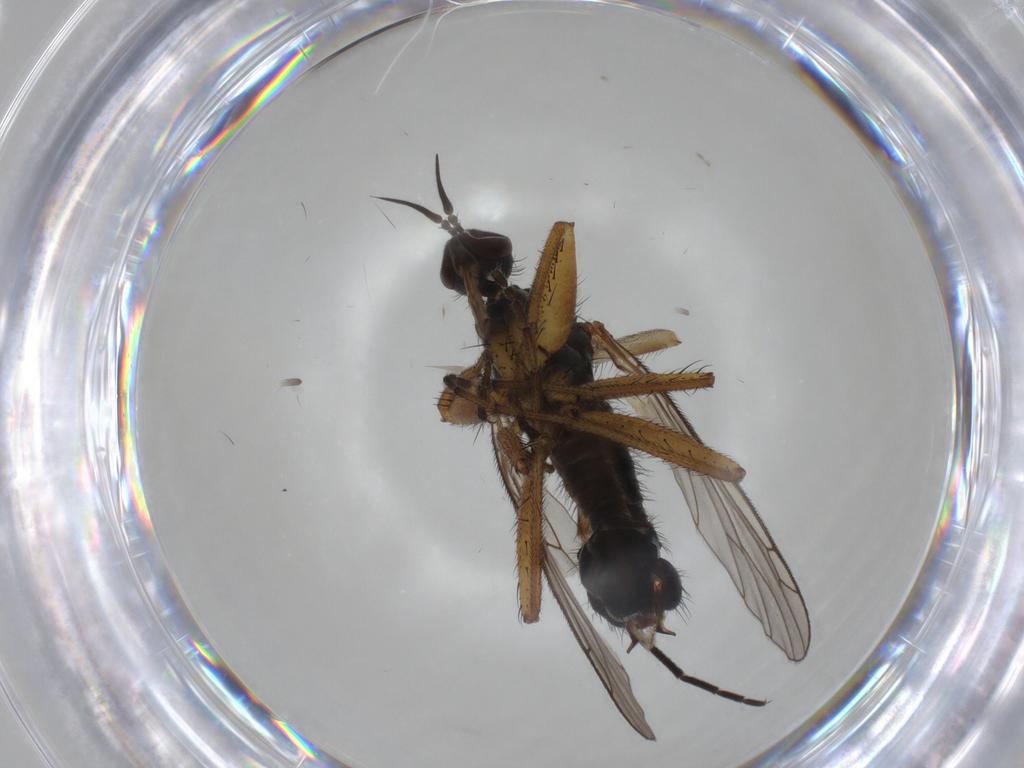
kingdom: Animalia
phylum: Arthropoda
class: Insecta
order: Diptera
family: Empididae
